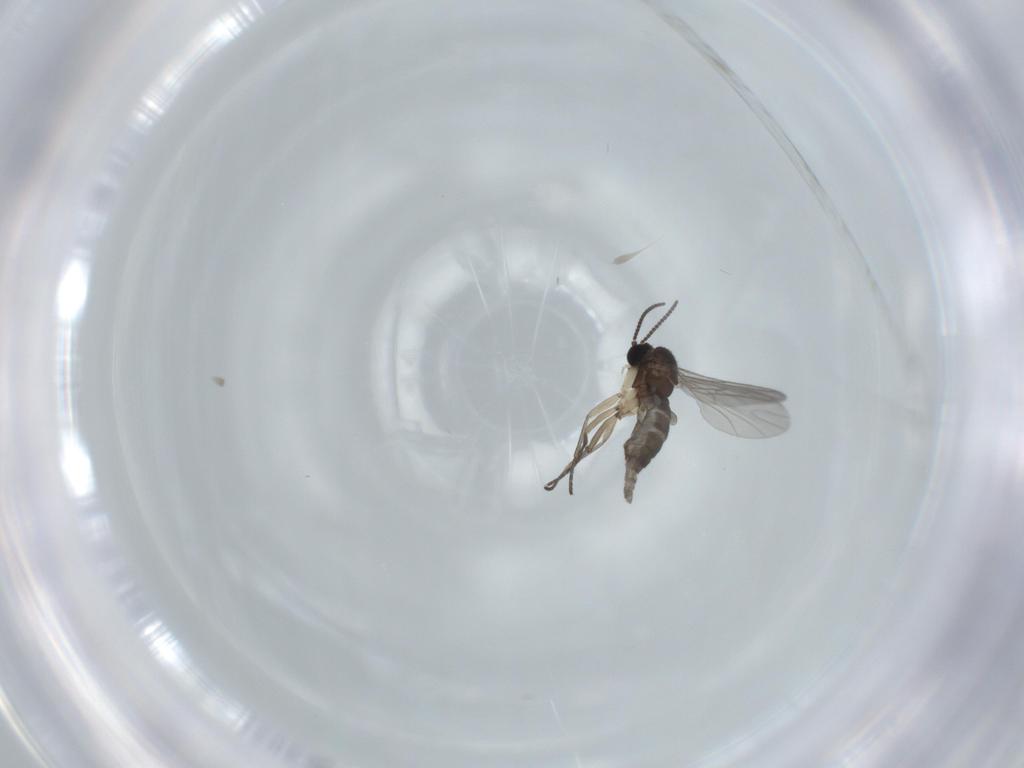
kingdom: Animalia
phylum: Arthropoda
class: Insecta
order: Diptera
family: Sciaridae
